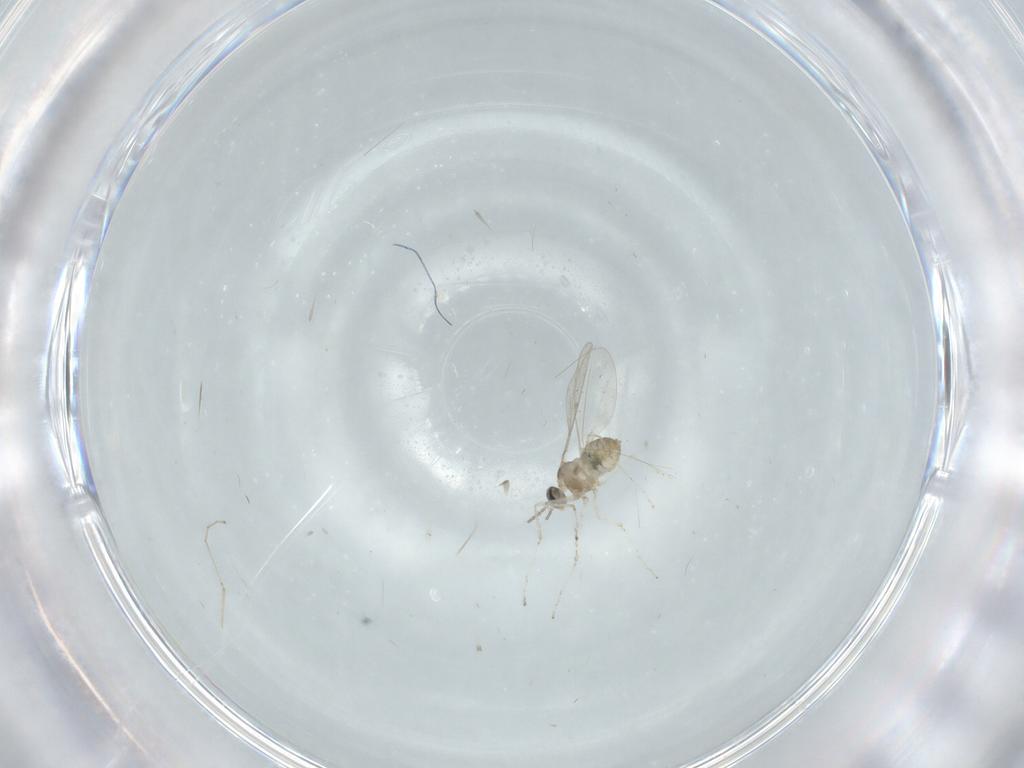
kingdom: Animalia
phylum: Arthropoda
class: Insecta
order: Diptera
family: Cecidomyiidae
